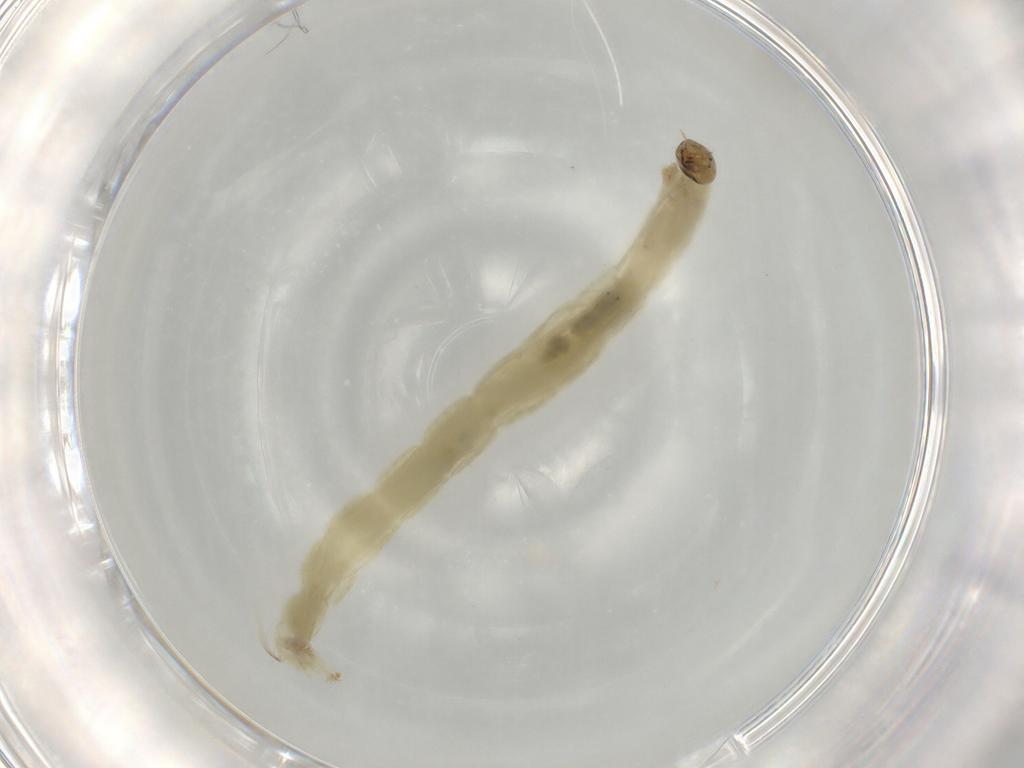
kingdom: Animalia
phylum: Arthropoda
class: Insecta
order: Diptera
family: Chironomidae
